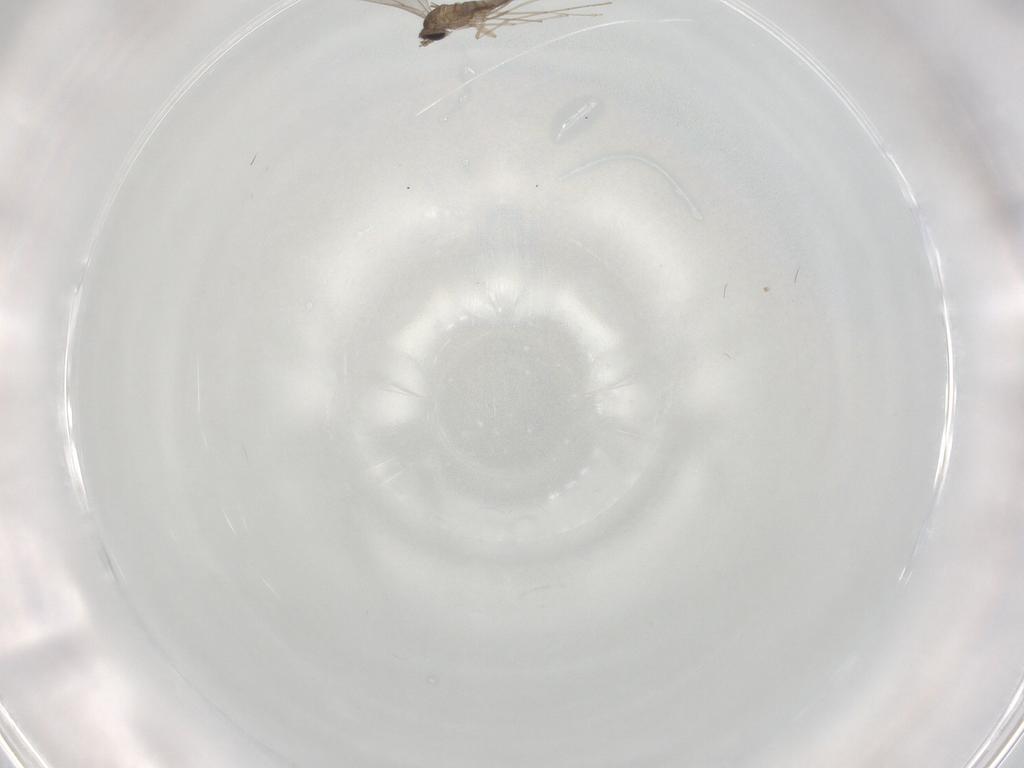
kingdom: Animalia
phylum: Arthropoda
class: Insecta
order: Diptera
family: Cecidomyiidae
